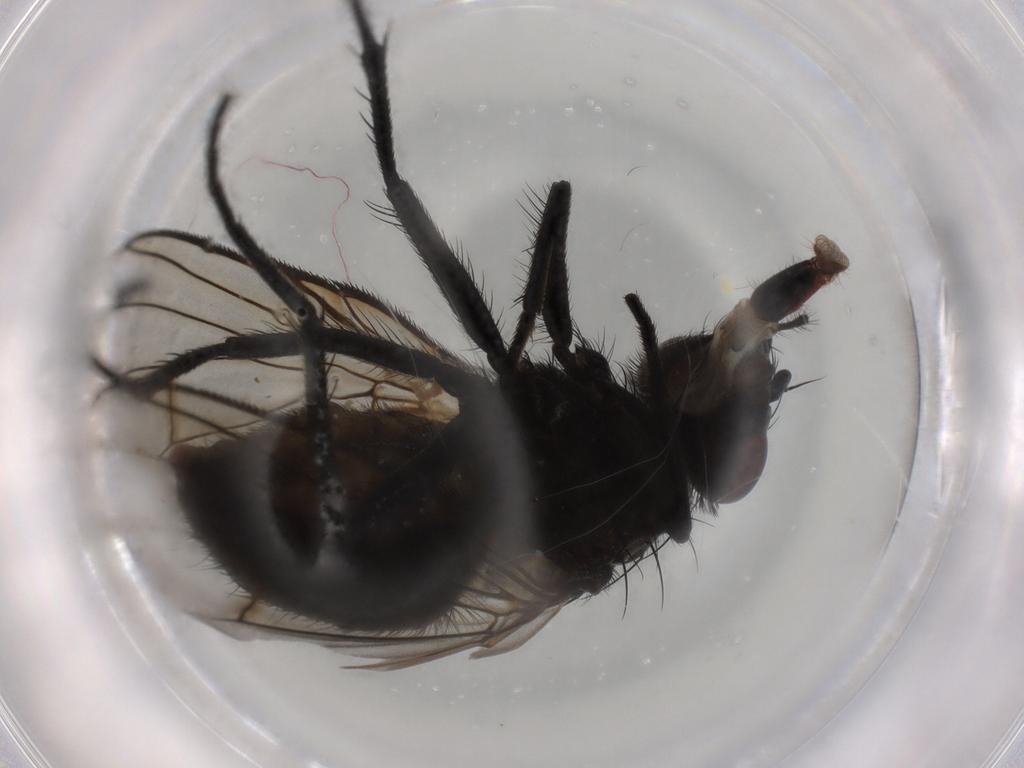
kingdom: Animalia
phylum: Arthropoda
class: Insecta
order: Diptera
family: Muscidae
